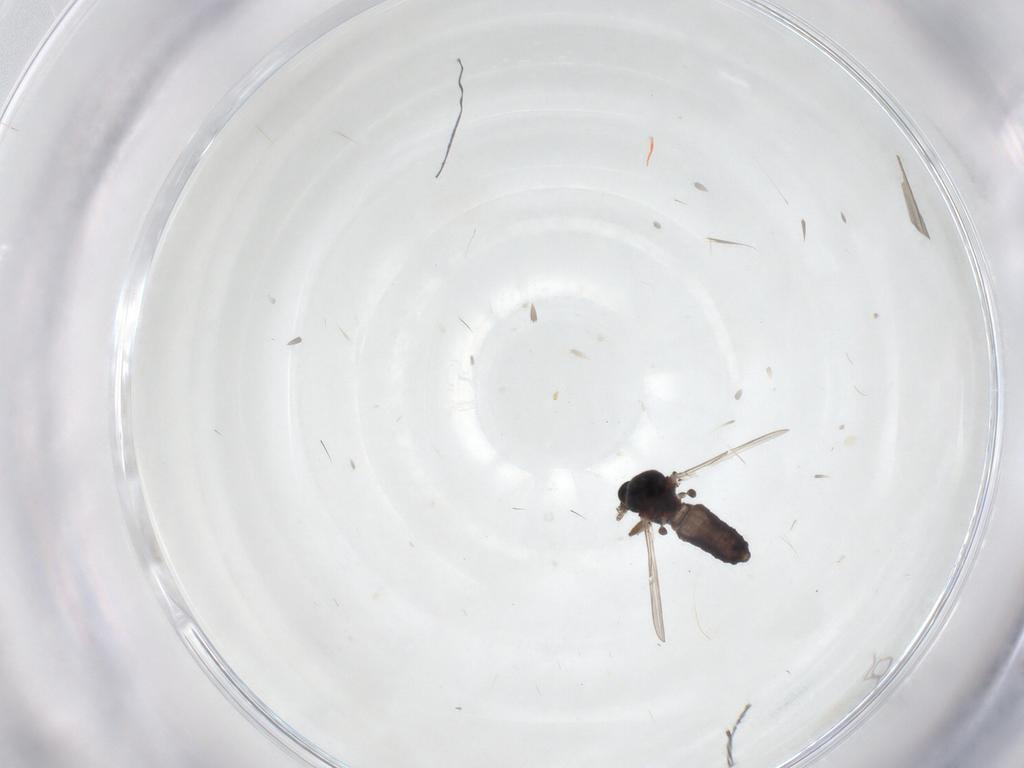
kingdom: Animalia
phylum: Arthropoda
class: Insecta
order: Diptera
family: Ceratopogonidae
